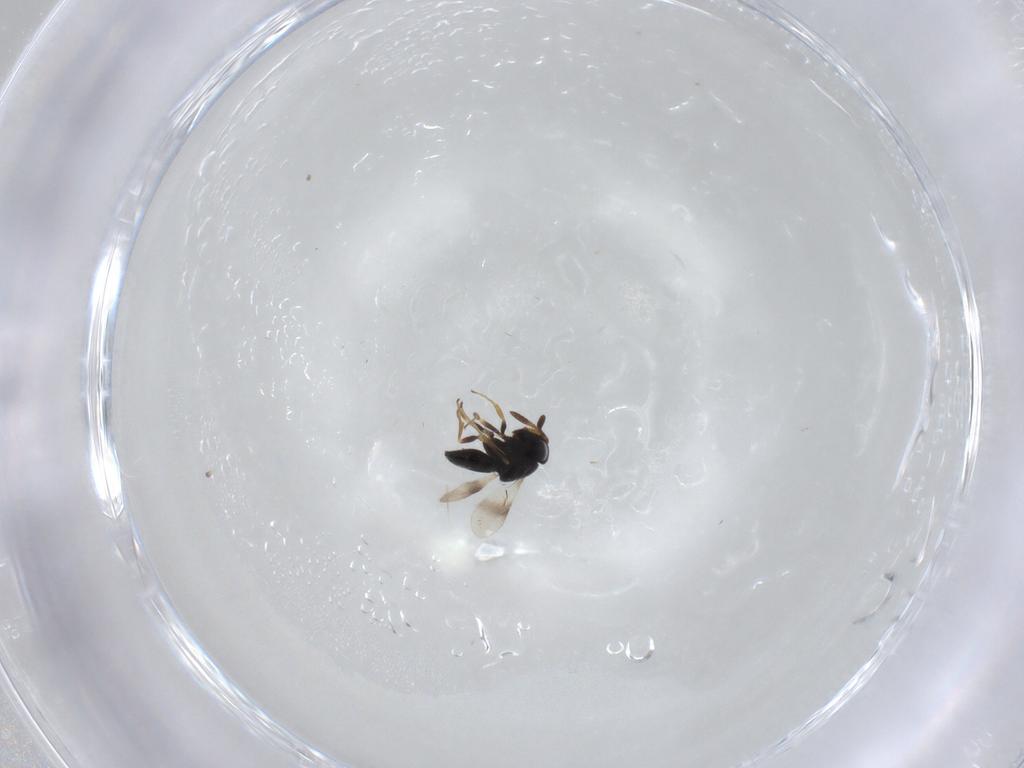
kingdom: Animalia
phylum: Arthropoda
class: Insecta
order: Hymenoptera
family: Scelionidae
